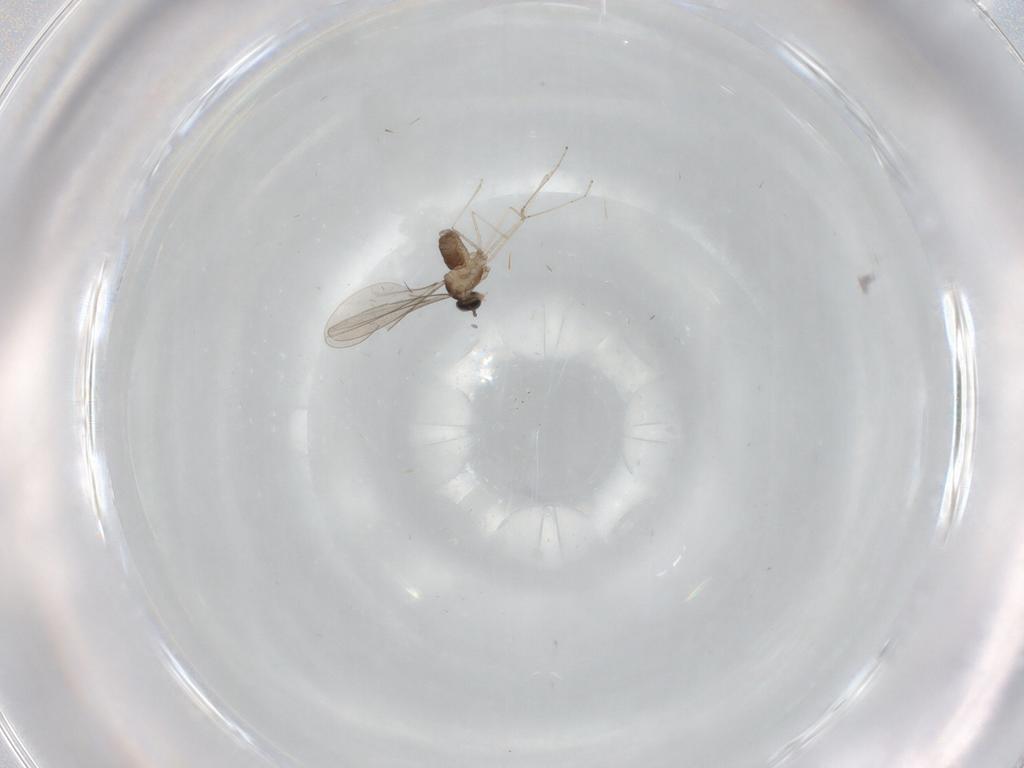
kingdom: Animalia
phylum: Arthropoda
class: Insecta
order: Diptera
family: Cecidomyiidae
